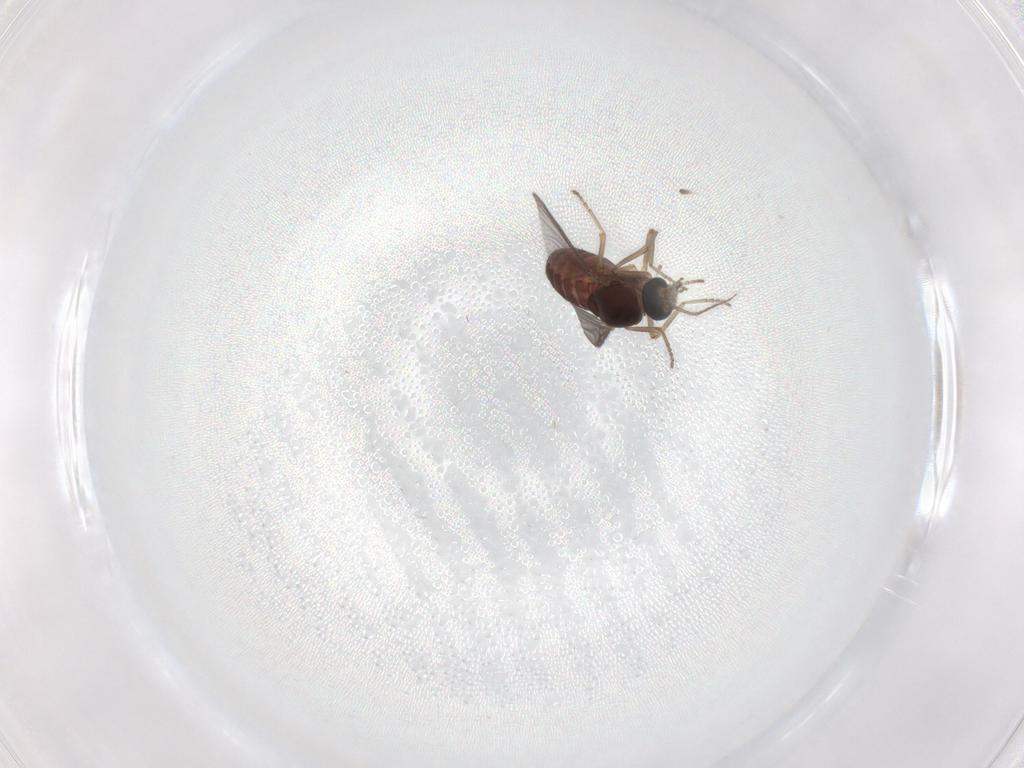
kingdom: Animalia
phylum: Arthropoda
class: Insecta
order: Diptera
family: Ceratopogonidae
